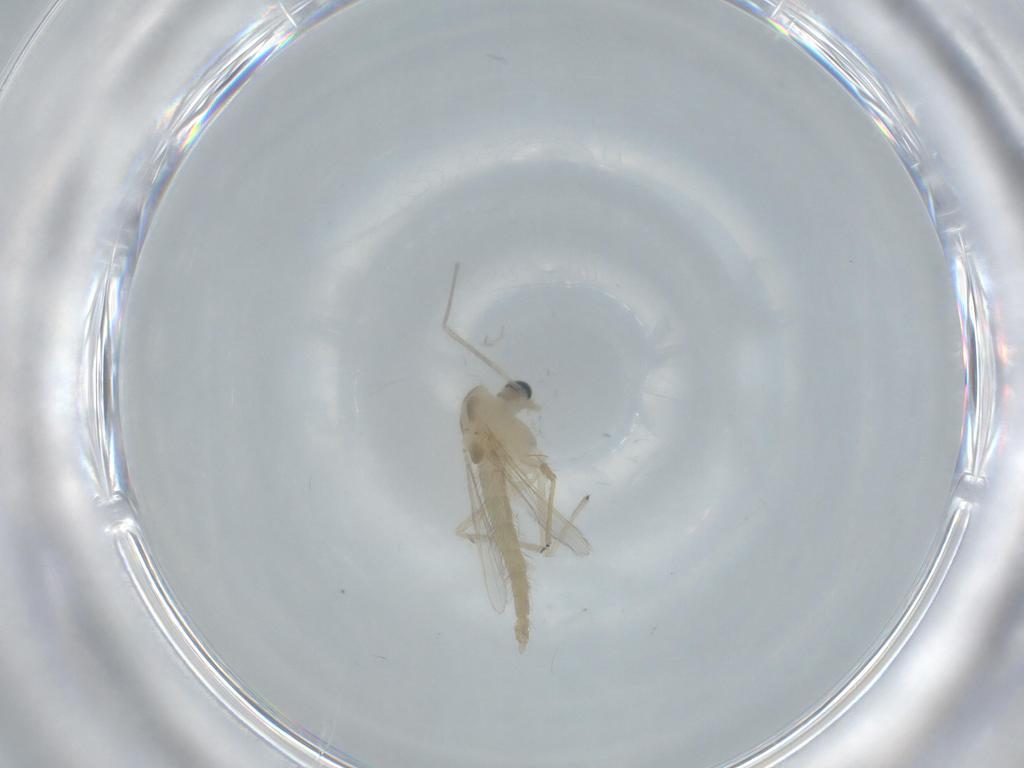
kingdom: Animalia
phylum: Arthropoda
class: Insecta
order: Diptera
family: Chironomidae
